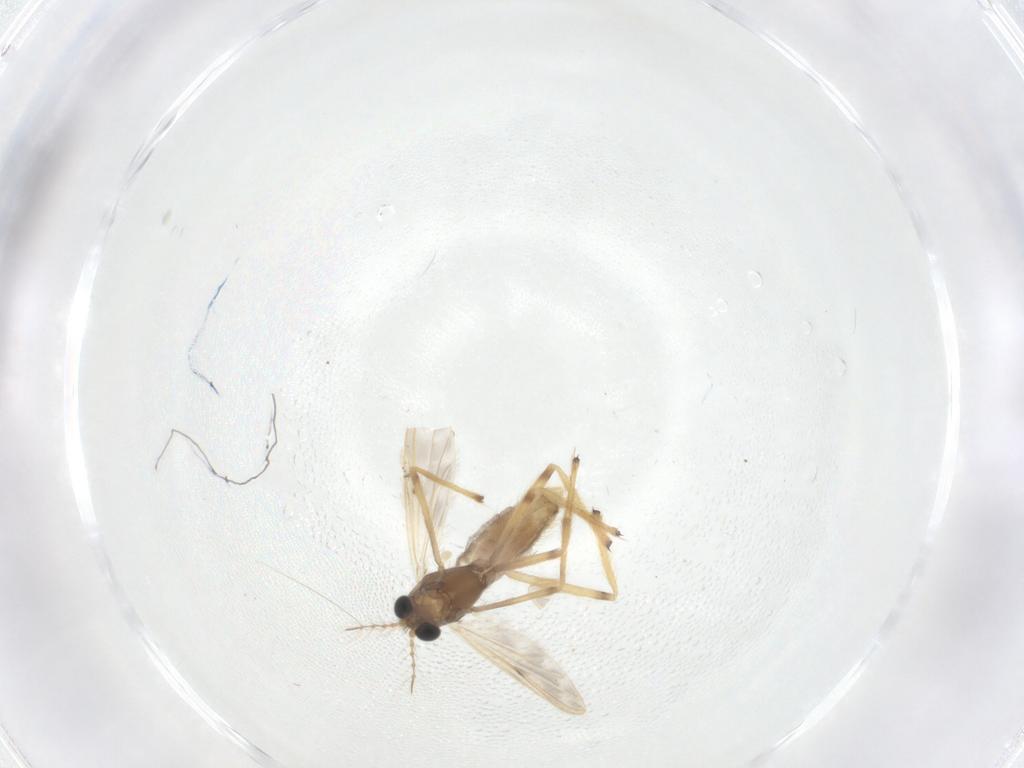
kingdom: Animalia
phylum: Arthropoda
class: Insecta
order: Diptera
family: Chironomidae
